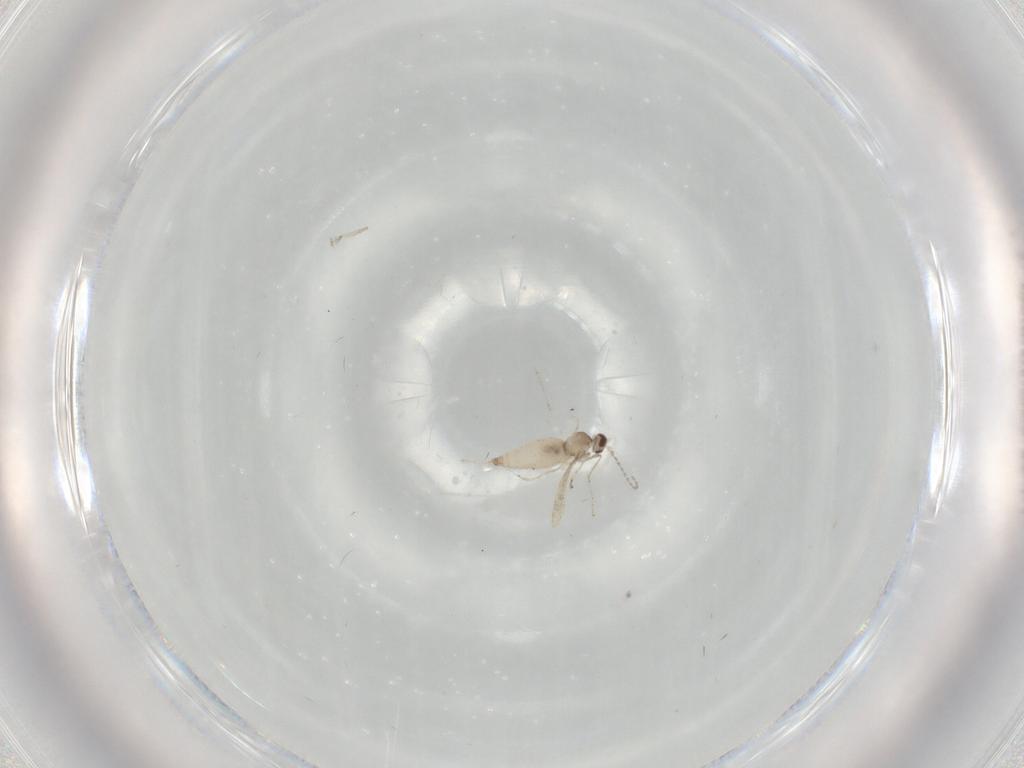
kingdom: Animalia
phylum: Arthropoda
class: Insecta
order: Diptera
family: Cecidomyiidae
